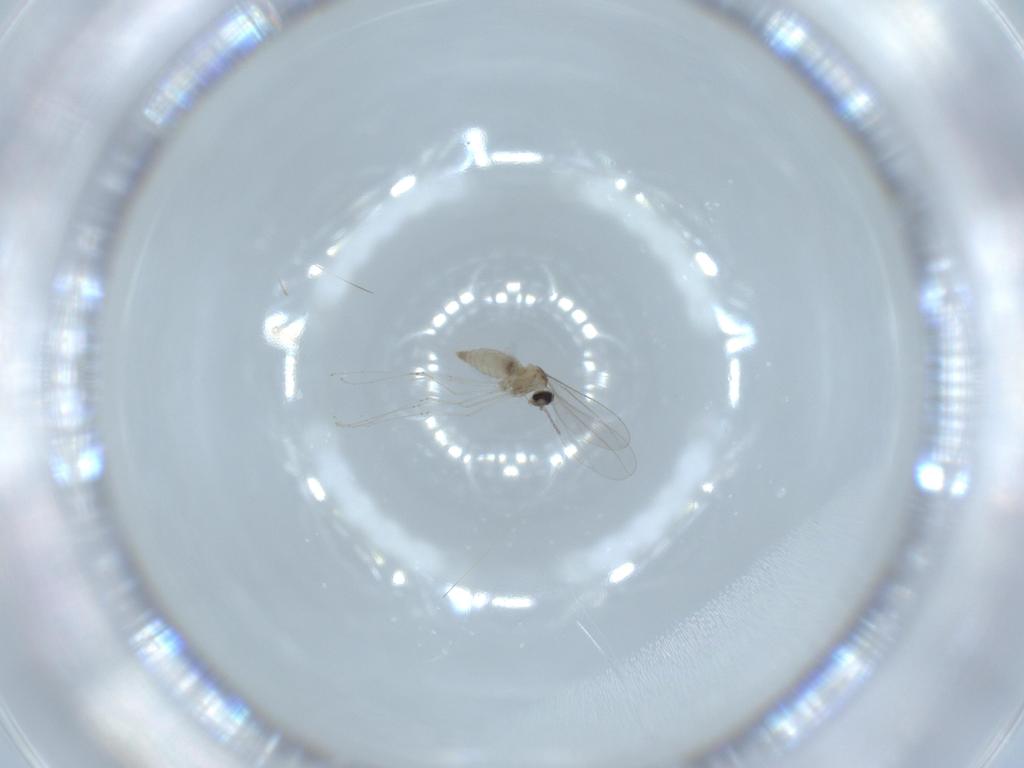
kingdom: Animalia
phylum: Arthropoda
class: Insecta
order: Diptera
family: Cecidomyiidae
